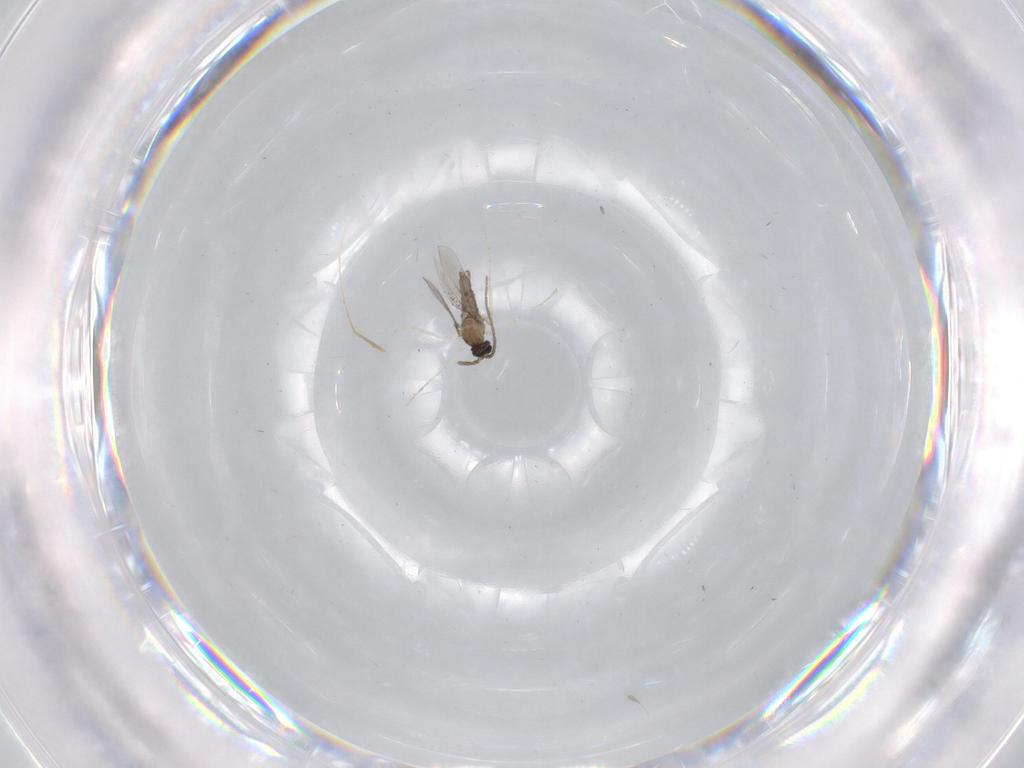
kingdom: Animalia
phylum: Arthropoda
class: Insecta
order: Diptera
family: Cecidomyiidae
